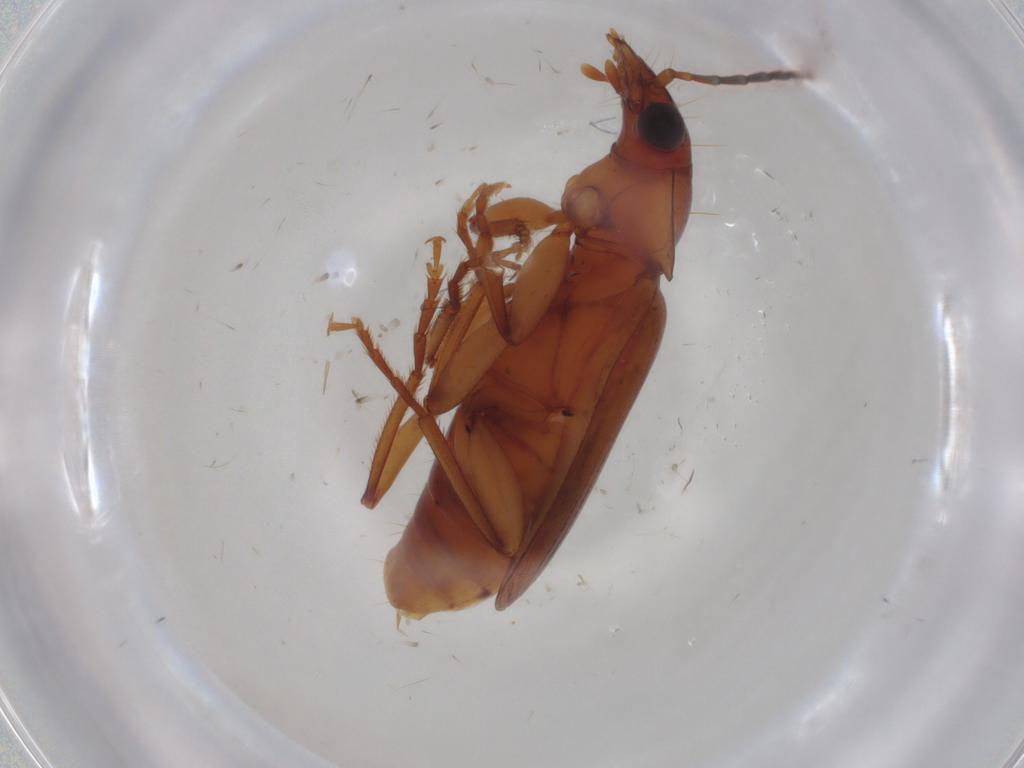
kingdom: Animalia
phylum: Arthropoda
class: Insecta
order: Coleoptera
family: Carabidae
